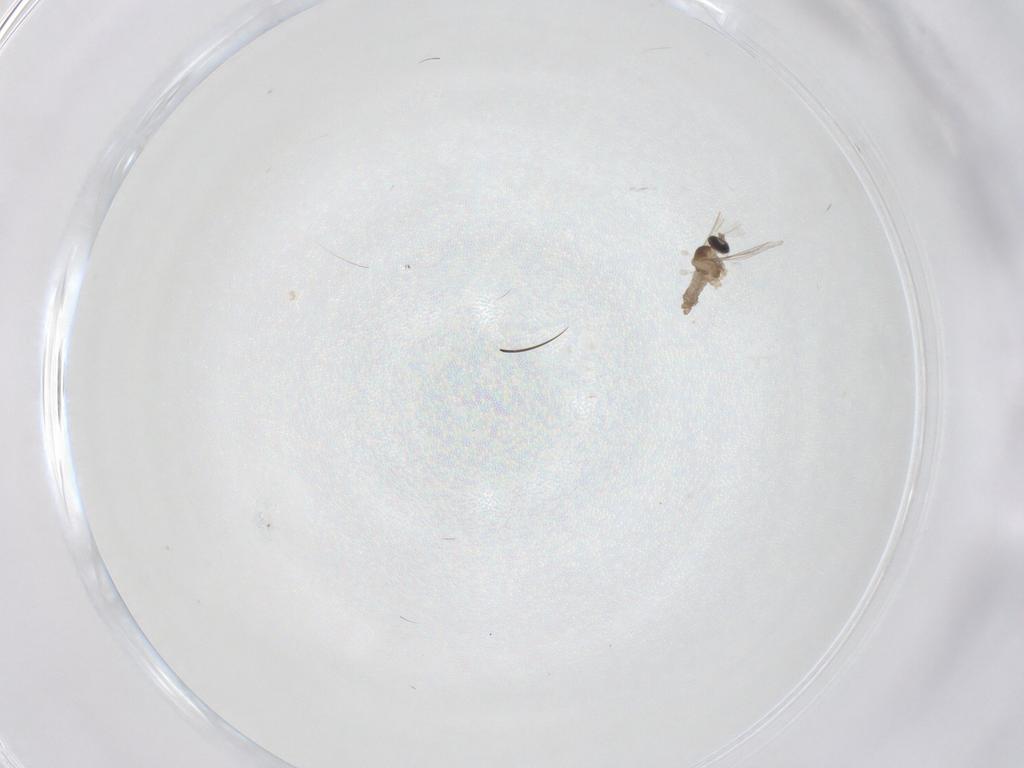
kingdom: Animalia
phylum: Arthropoda
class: Insecta
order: Diptera
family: Cecidomyiidae
